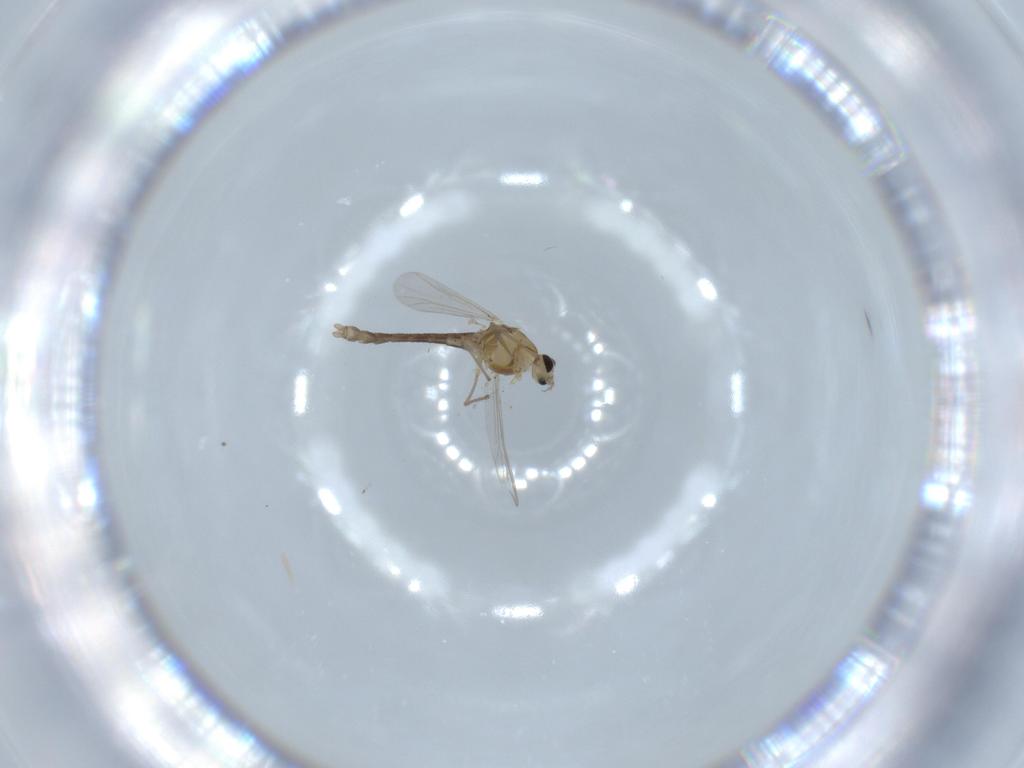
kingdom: Animalia
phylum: Arthropoda
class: Insecta
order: Diptera
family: Chironomidae
